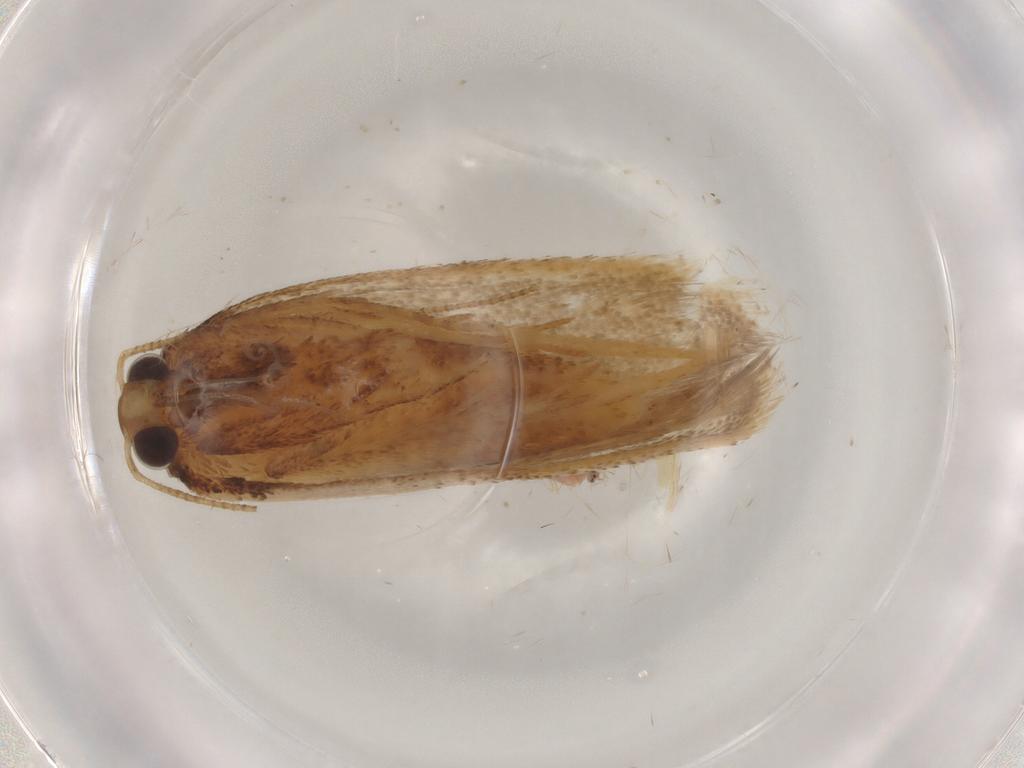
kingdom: Animalia
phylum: Arthropoda
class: Insecta
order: Lepidoptera
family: Autostichidae
